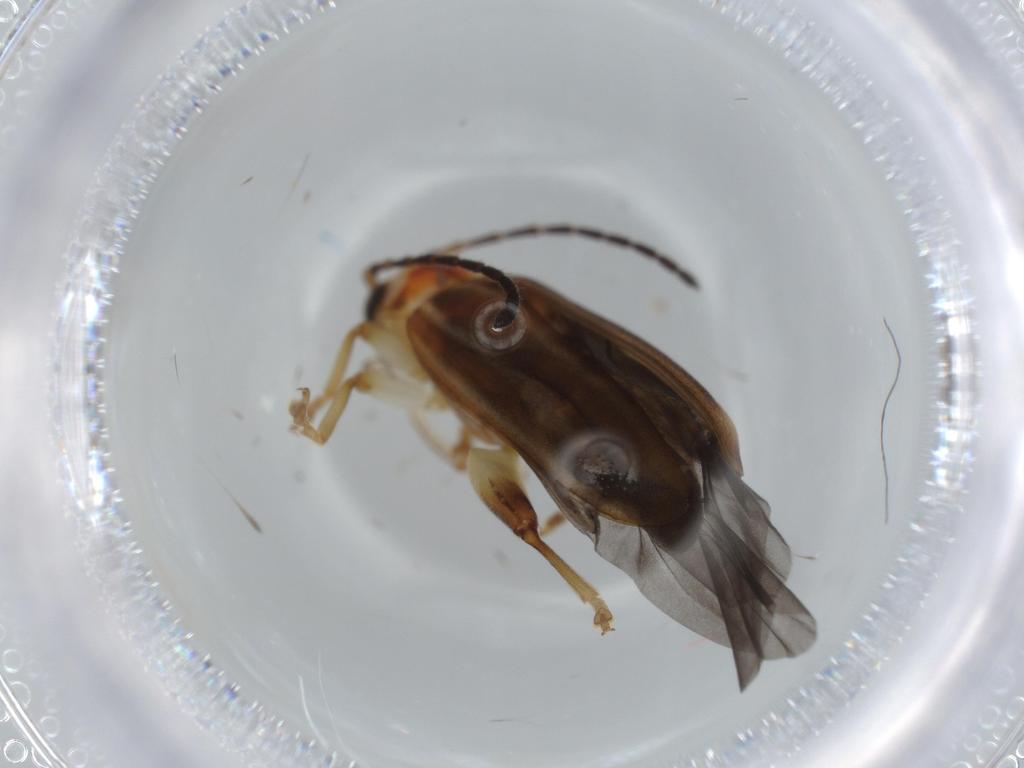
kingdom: Animalia
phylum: Arthropoda
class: Insecta
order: Coleoptera
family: Chrysomelidae
